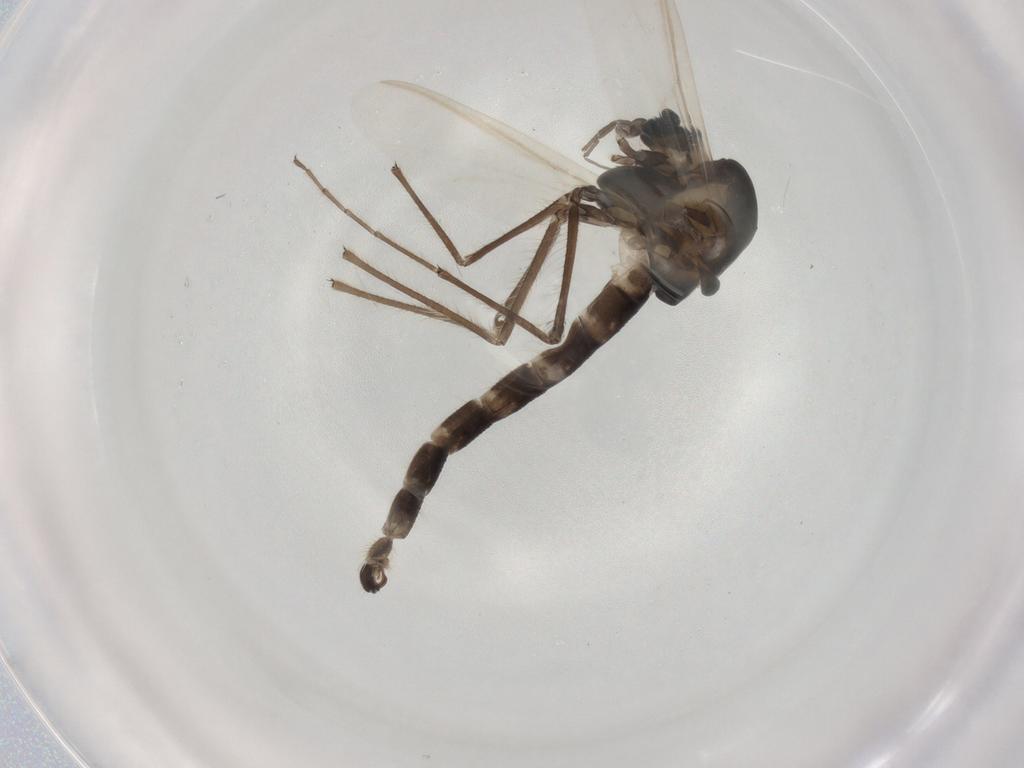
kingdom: Animalia
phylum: Arthropoda
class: Insecta
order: Diptera
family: Chironomidae
